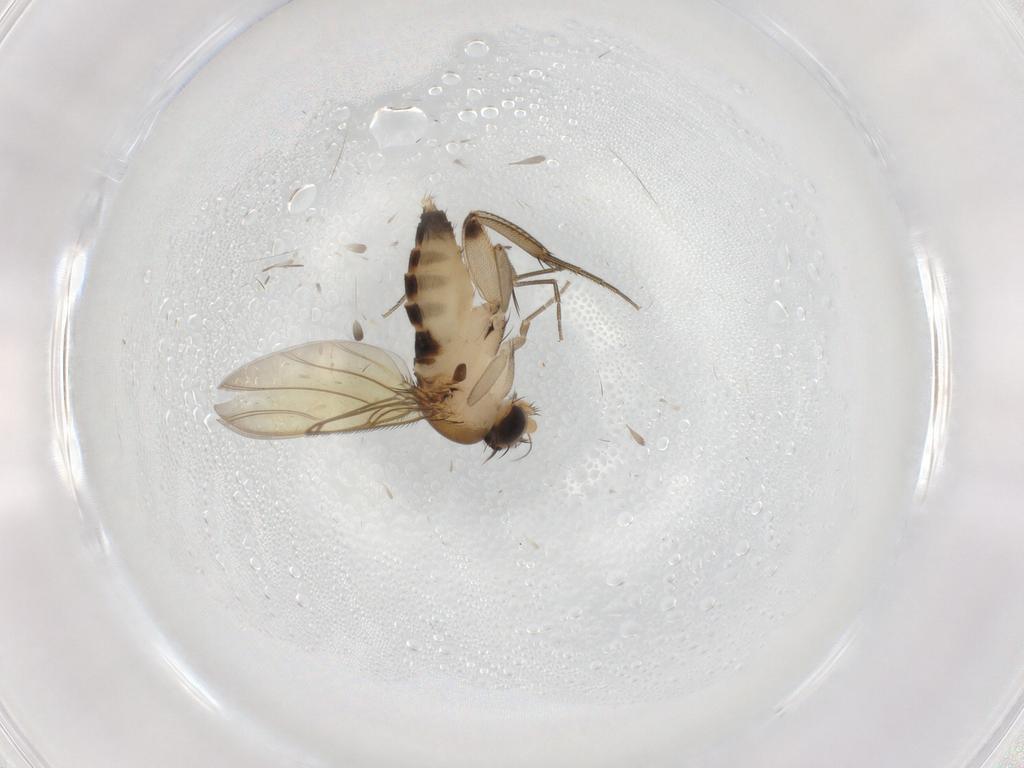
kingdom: Animalia
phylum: Arthropoda
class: Insecta
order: Diptera
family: Phoridae
